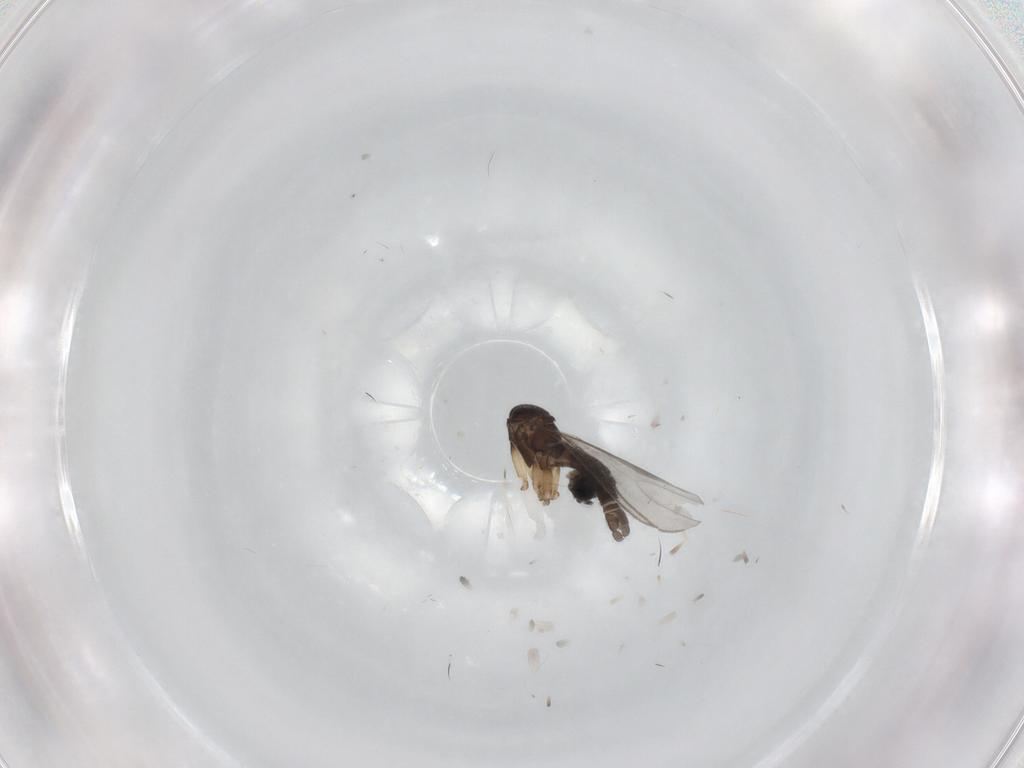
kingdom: Animalia
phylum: Arthropoda
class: Insecta
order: Diptera
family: Sciaridae
